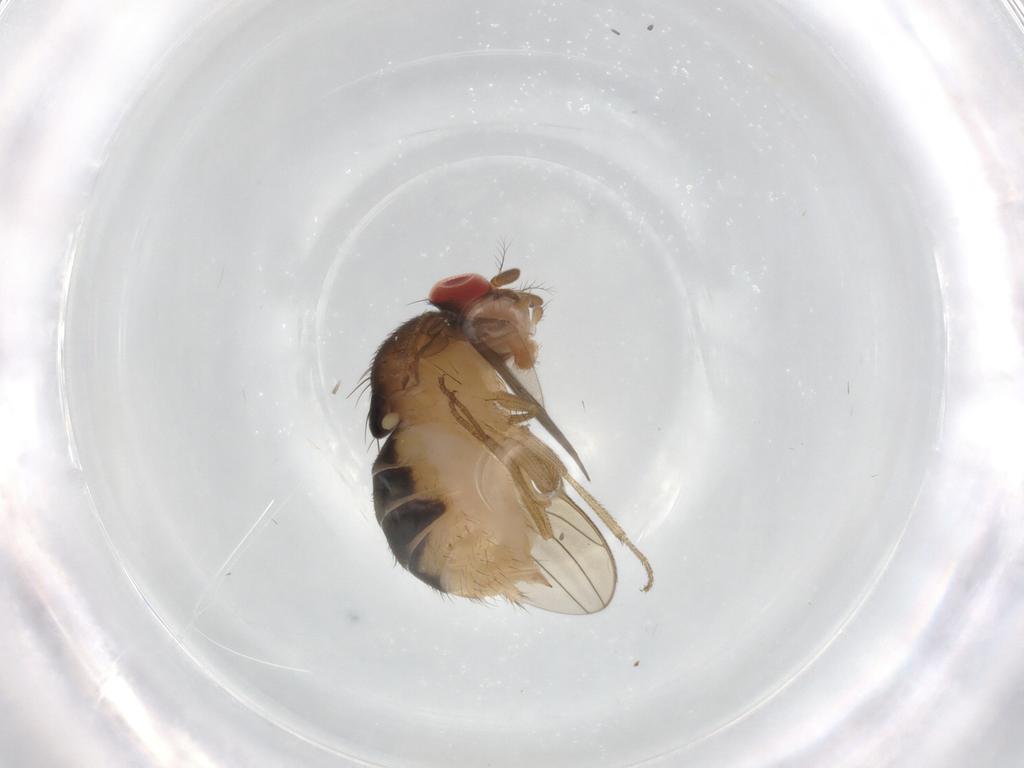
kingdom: Animalia
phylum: Arthropoda
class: Insecta
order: Diptera
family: Drosophilidae
